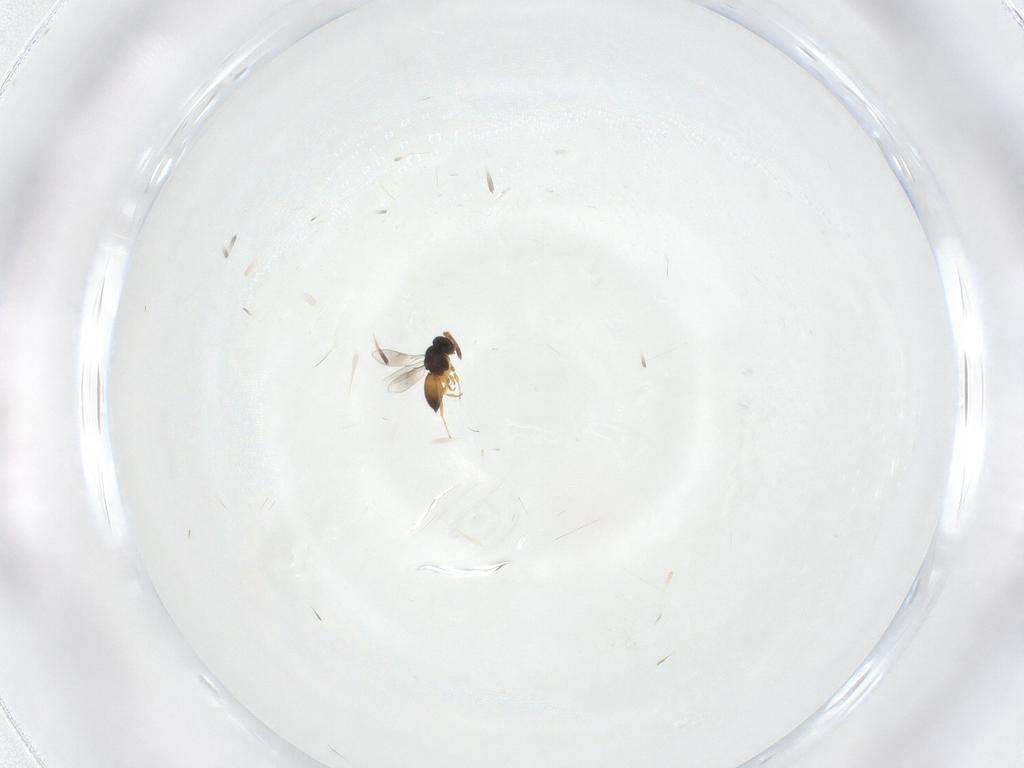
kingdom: Animalia
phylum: Arthropoda
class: Insecta
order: Hymenoptera
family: Scelionidae
